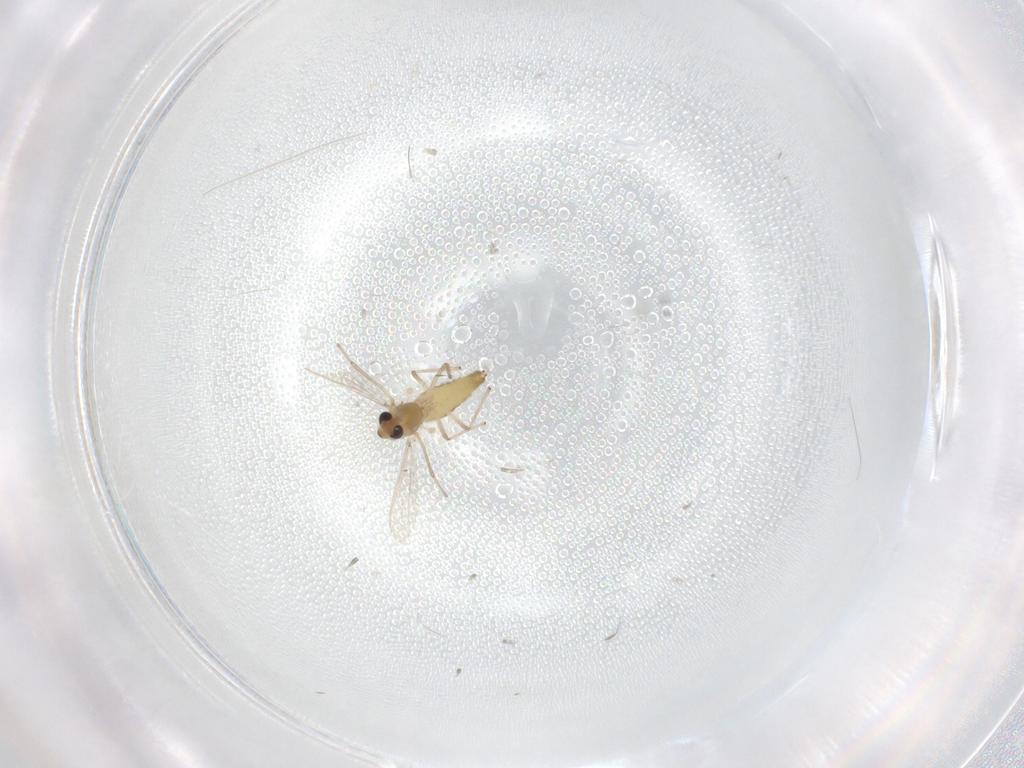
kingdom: Animalia
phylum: Arthropoda
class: Insecta
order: Diptera
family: Chironomidae
